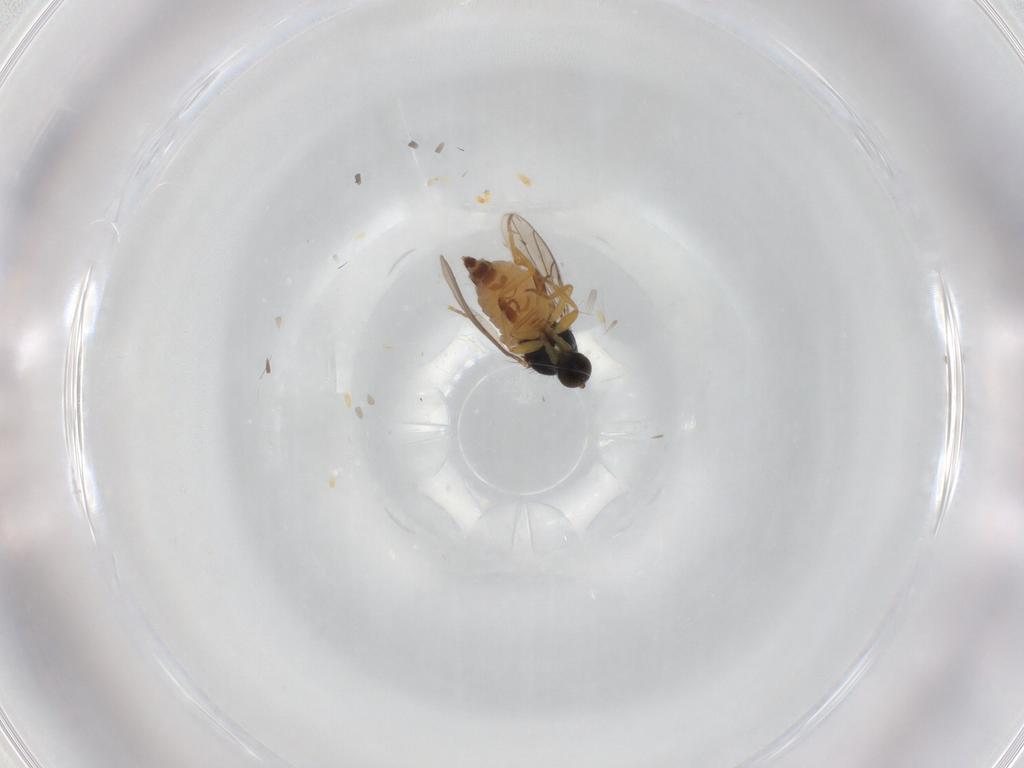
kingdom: Animalia
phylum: Arthropoda
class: Insecta
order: Diptera
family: Hybotidae
